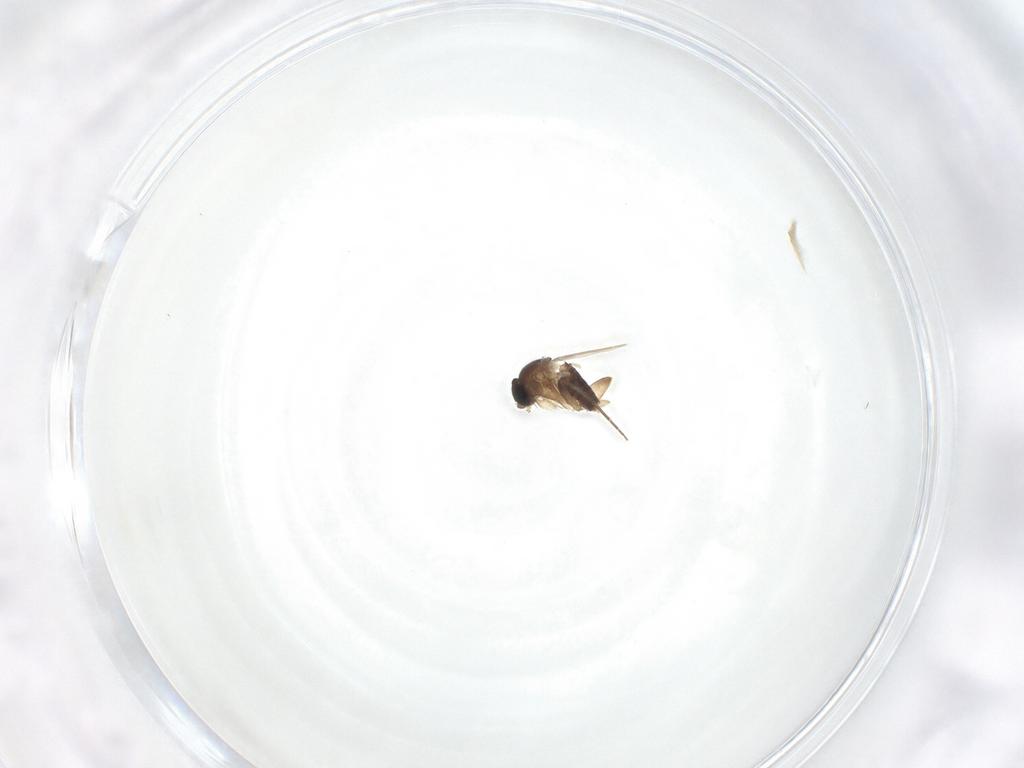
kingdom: Animalia
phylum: Arthropoda
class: Insecta
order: Diptera
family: Phoridae
